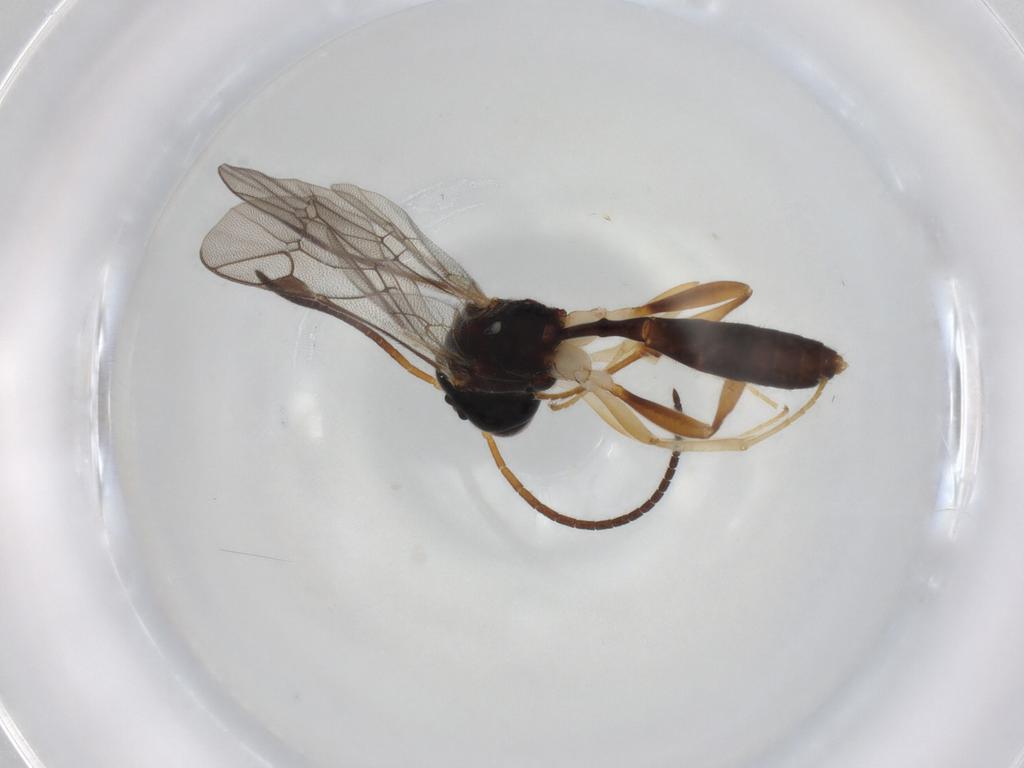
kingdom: Animalia
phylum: Arthropoda
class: Insecta
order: Hymenoptera
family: Ichneumonidae
